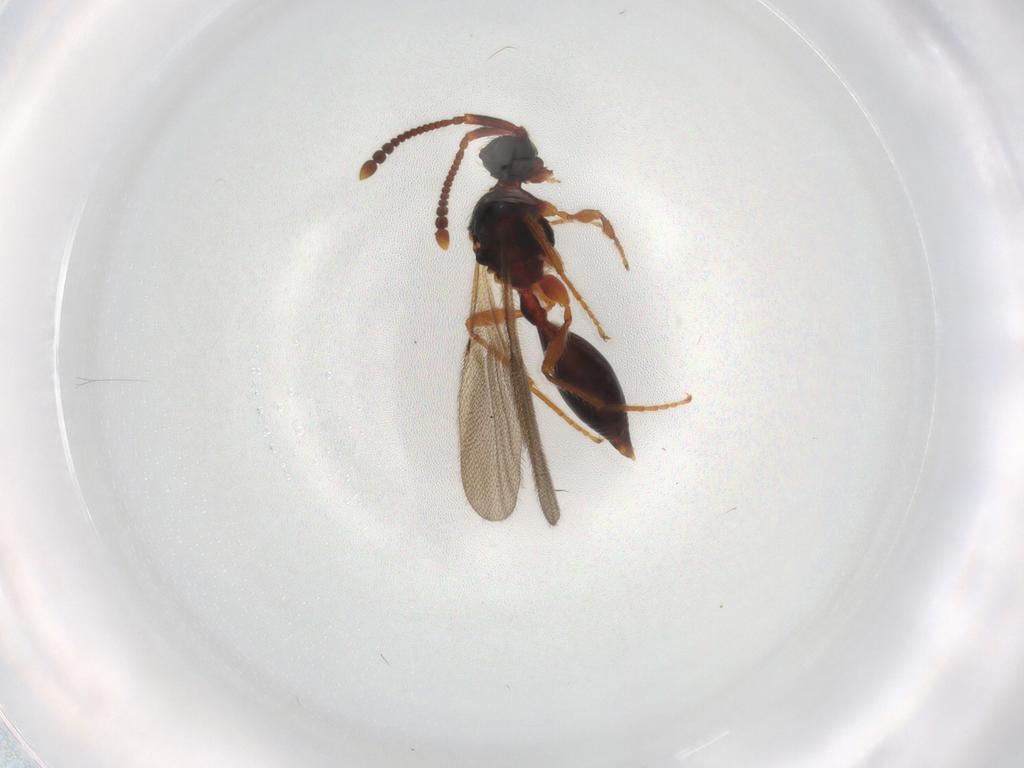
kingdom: Animalia
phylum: Arthropoda
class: Insecta
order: Hymenoptera
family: Diapriidae
